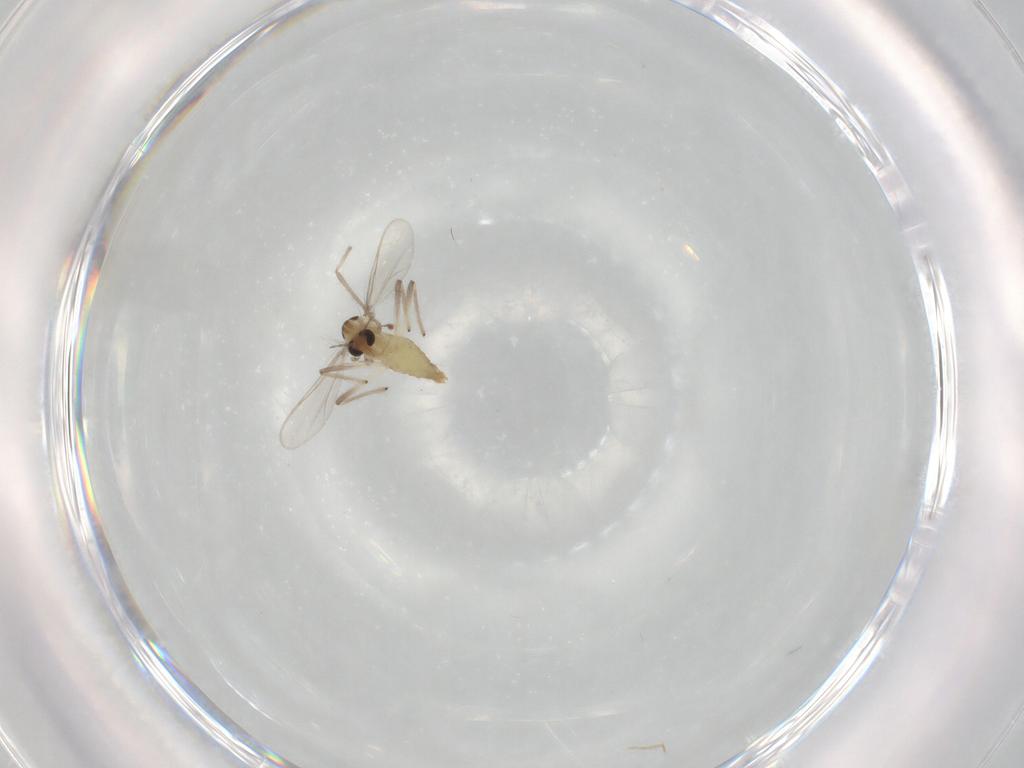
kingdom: Animalia
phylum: Arthropoda
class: Insecta
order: Diptera
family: Chironomidae
